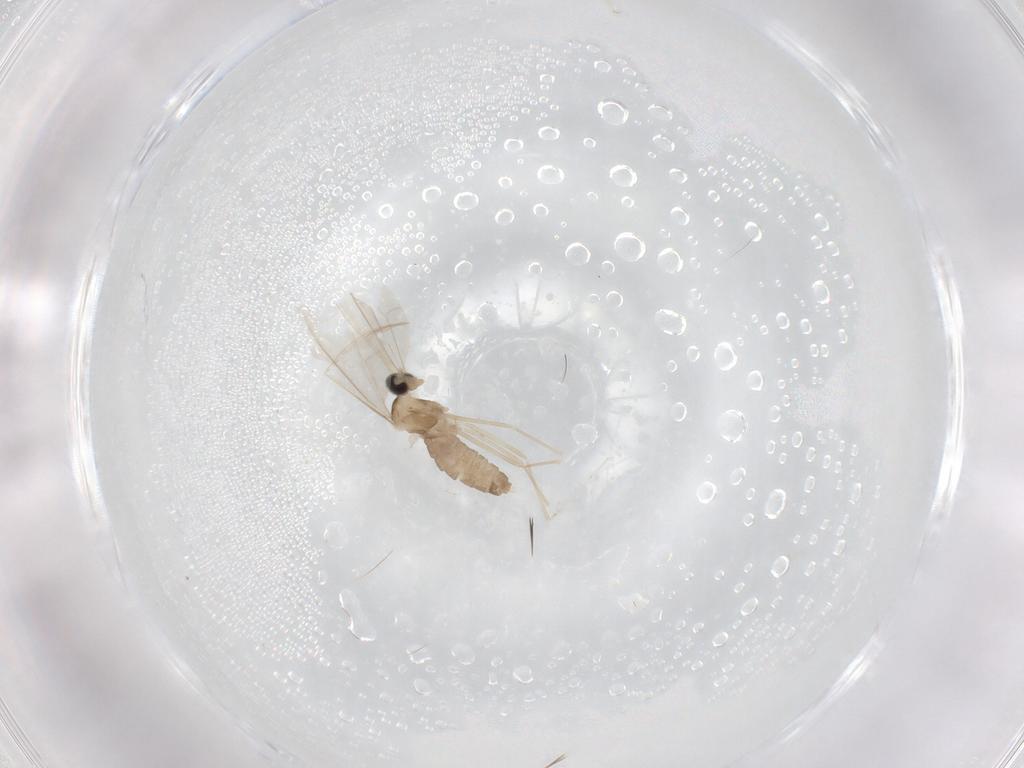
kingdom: Animalia
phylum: Arthropoda
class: Insecta
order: Diptera
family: Cecidomyiidae
